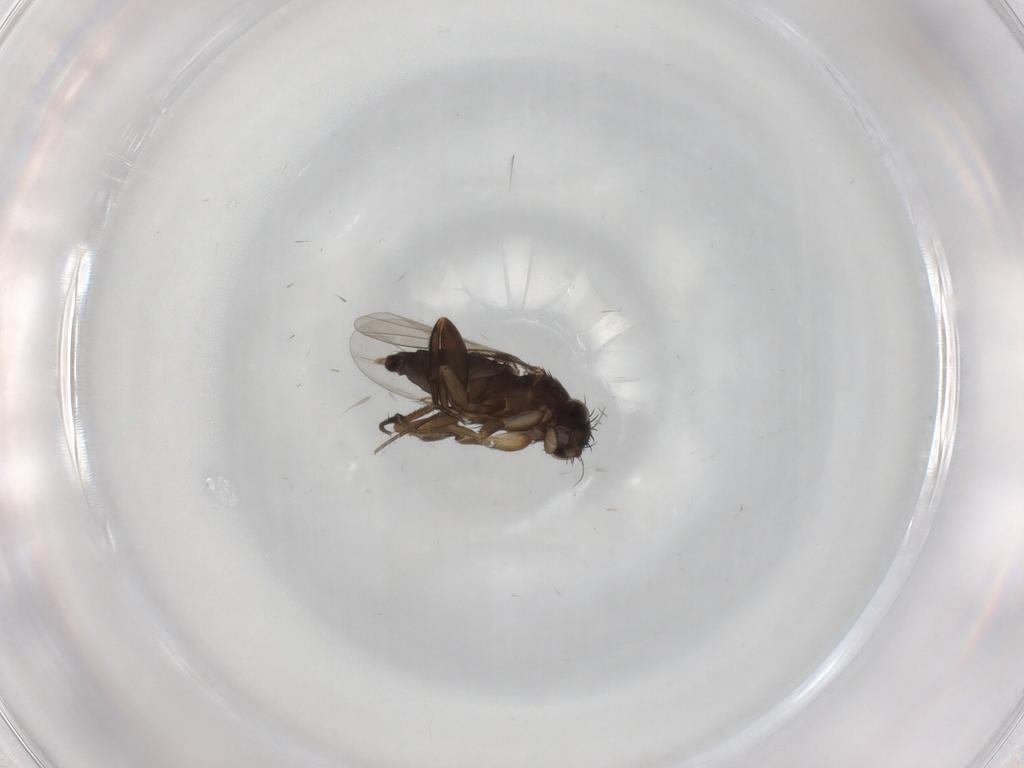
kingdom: Animalia
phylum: Arthropoda
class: Insecta
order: Diptera
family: Phoridae
